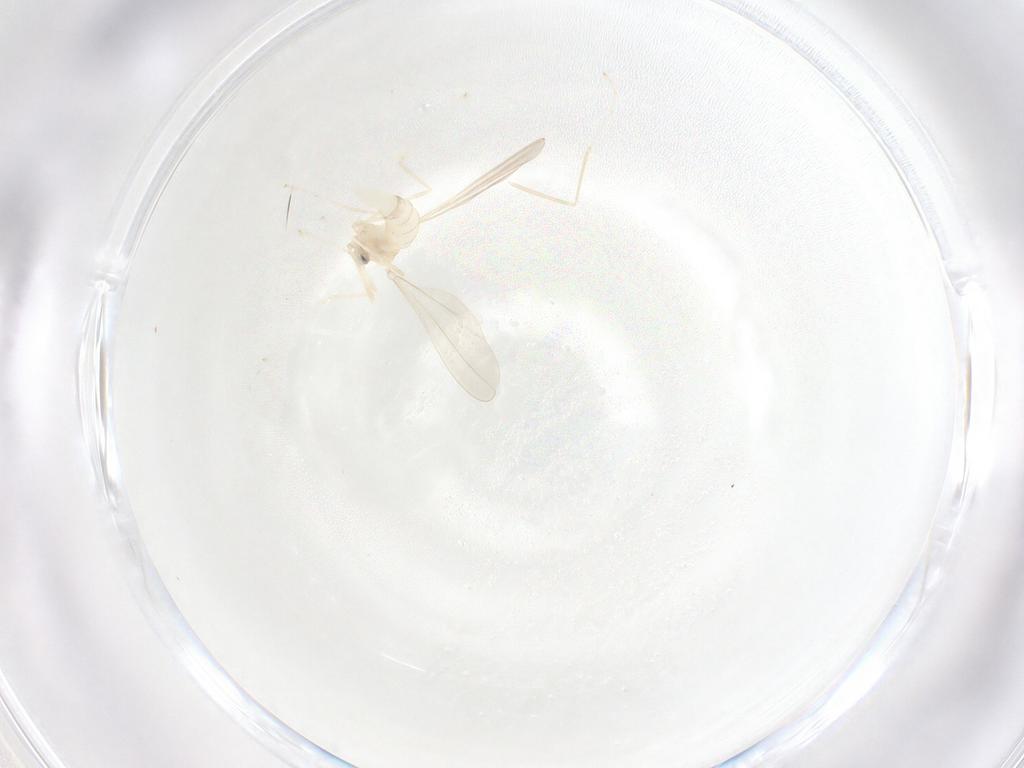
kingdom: Animalia
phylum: Arthropoda
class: Insecta
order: Diptera
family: Cecidomyiidae
